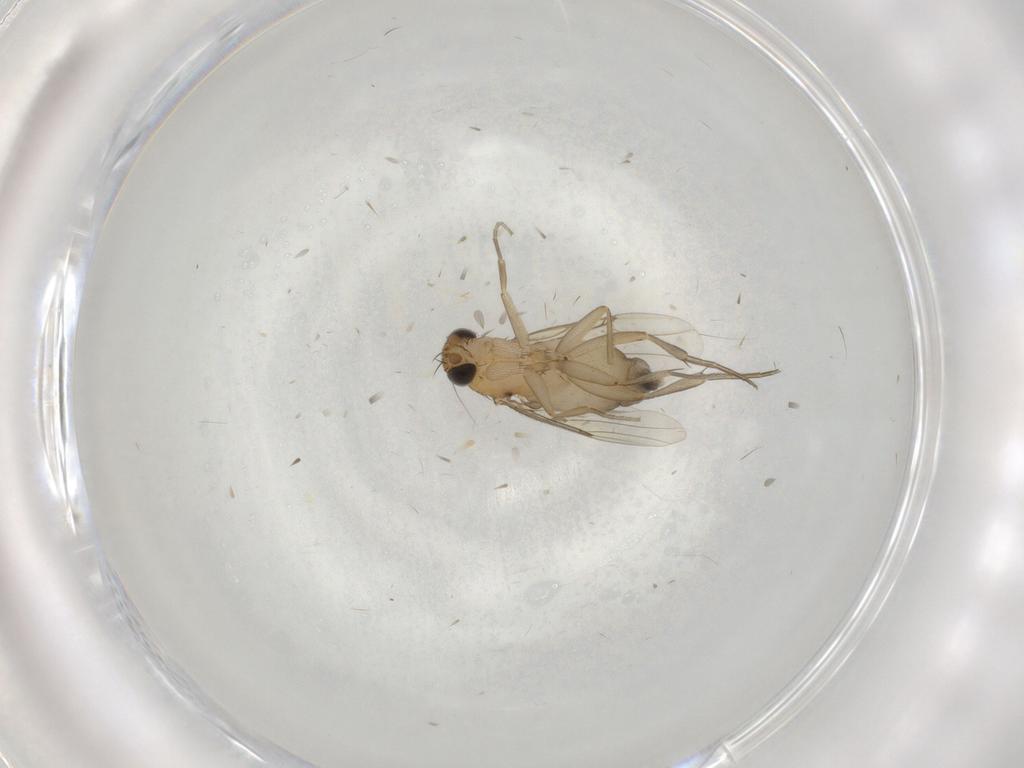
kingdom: Animalia
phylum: Arthropoda
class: Insecta
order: Diptera
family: Phoridae
